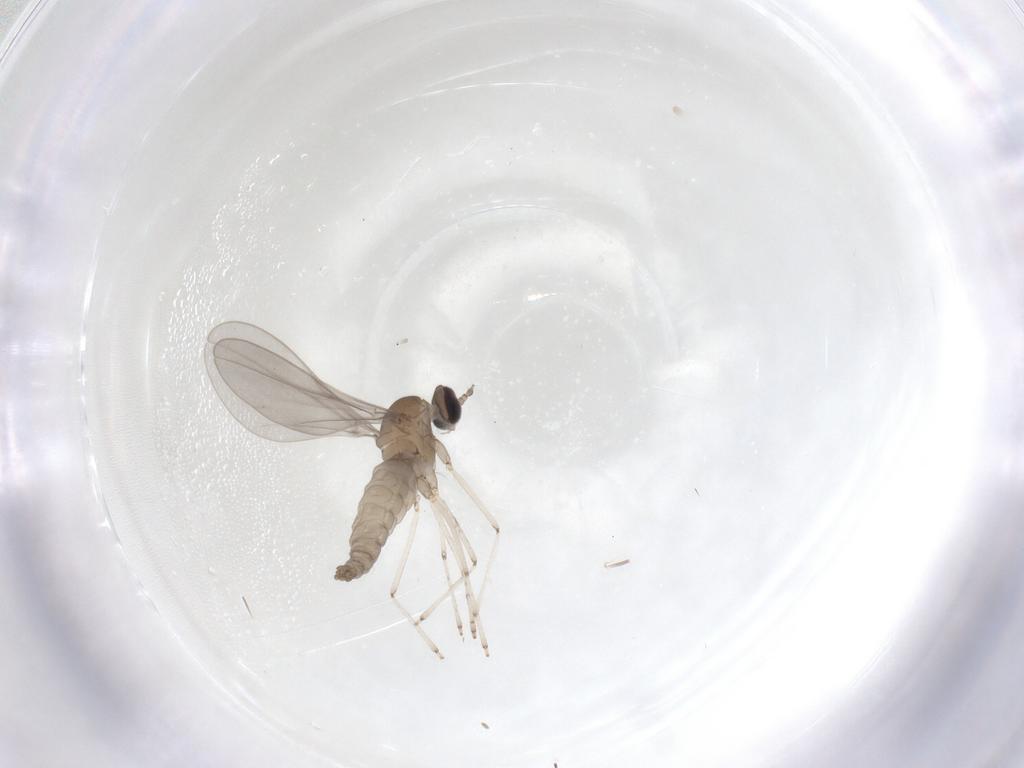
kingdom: Animalia
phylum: Arthropoda
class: Insecta
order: Diptera
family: Cecidomyiidae
